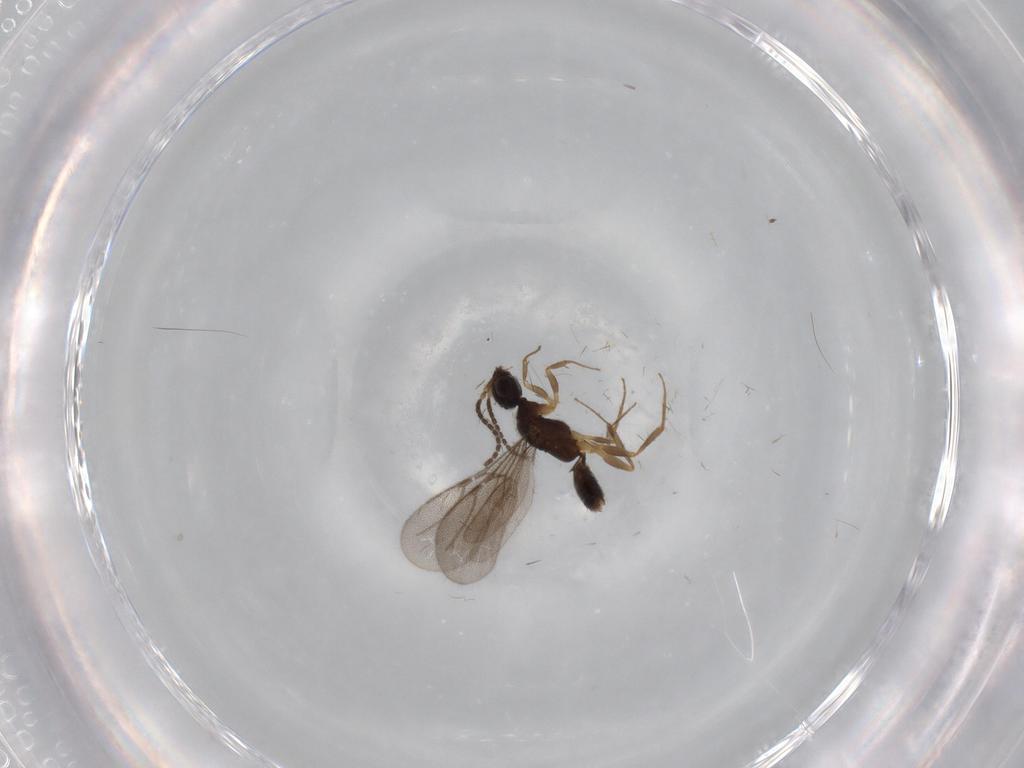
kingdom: Animalia
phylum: Arthropoda
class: Insecta
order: Hymenoptera
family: Bethylidae
